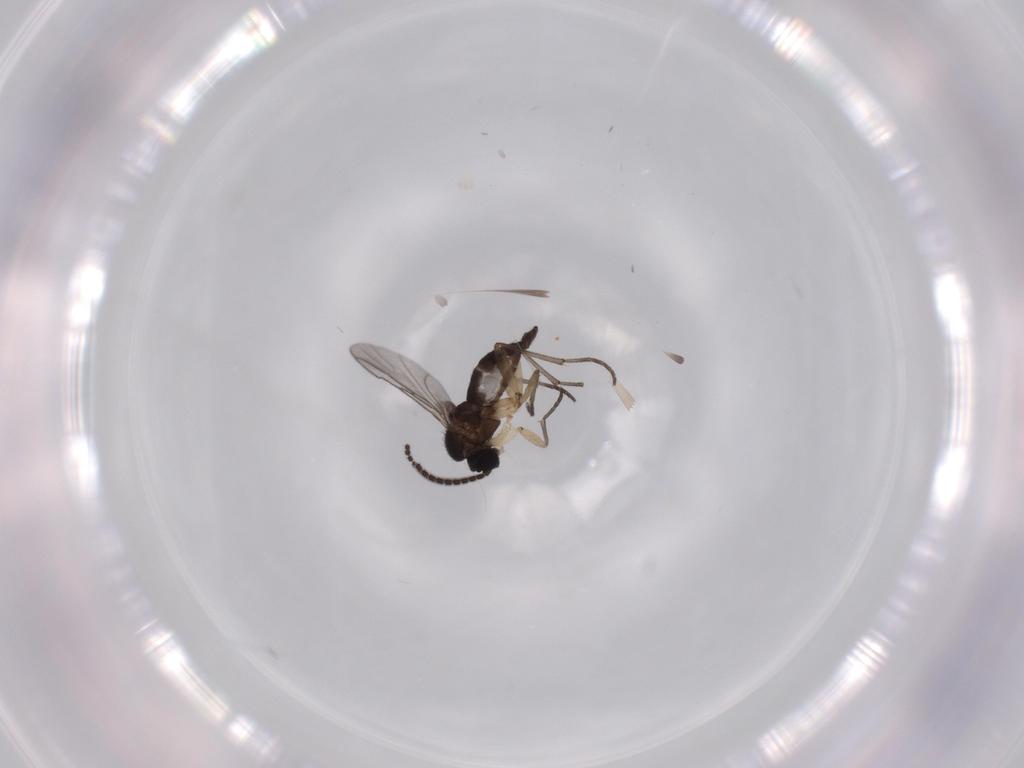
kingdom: Animalia
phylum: Arthropoda
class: Insecta
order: Diptera
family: Sciaridae
